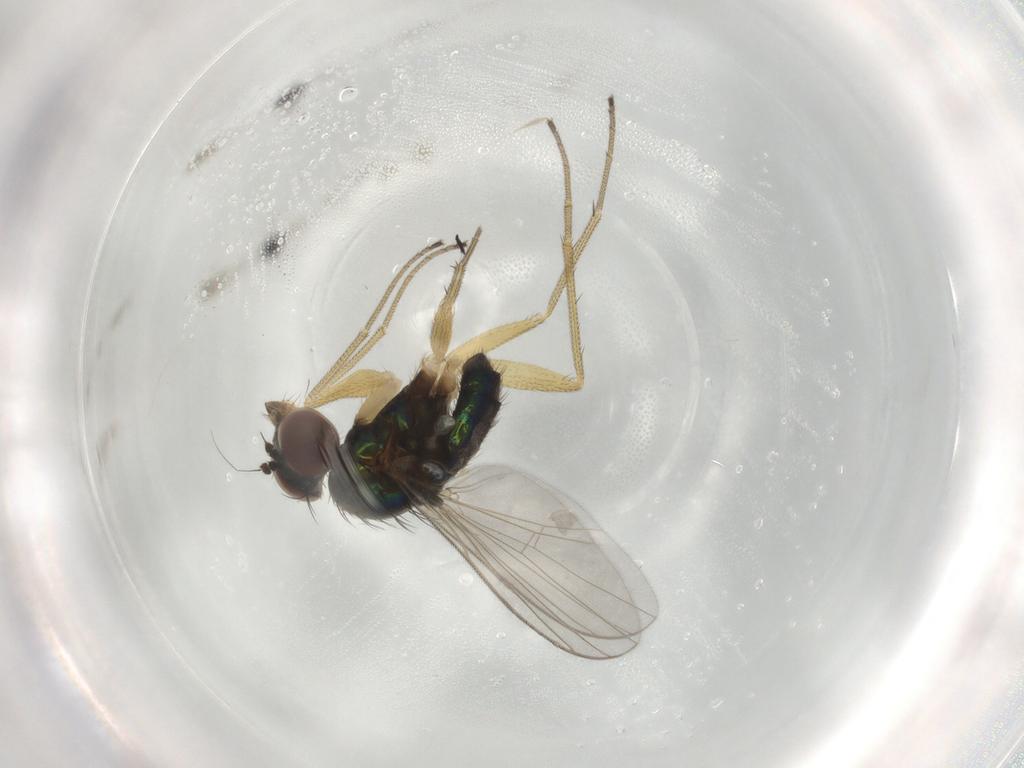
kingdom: Animalia
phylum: Arthropoda
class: Insecta
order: Diptera
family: Dolichopodidae
